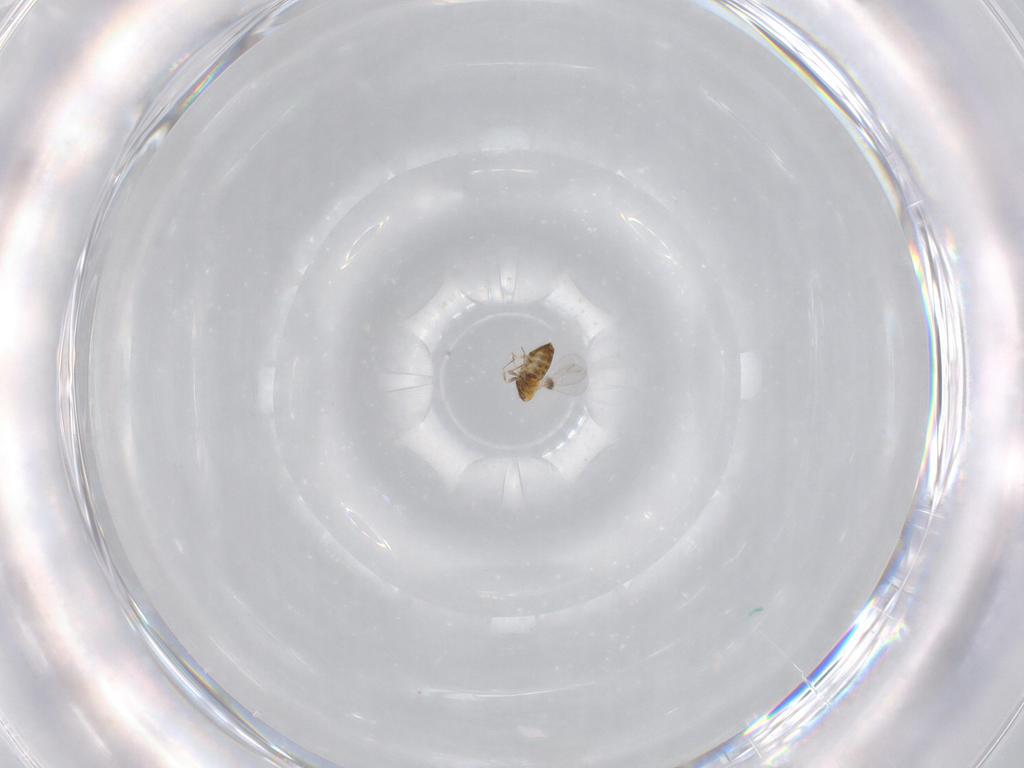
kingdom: Animalia
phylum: Arthropoda
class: Insecta
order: Hymenoptera
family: Trichogrammatidae
